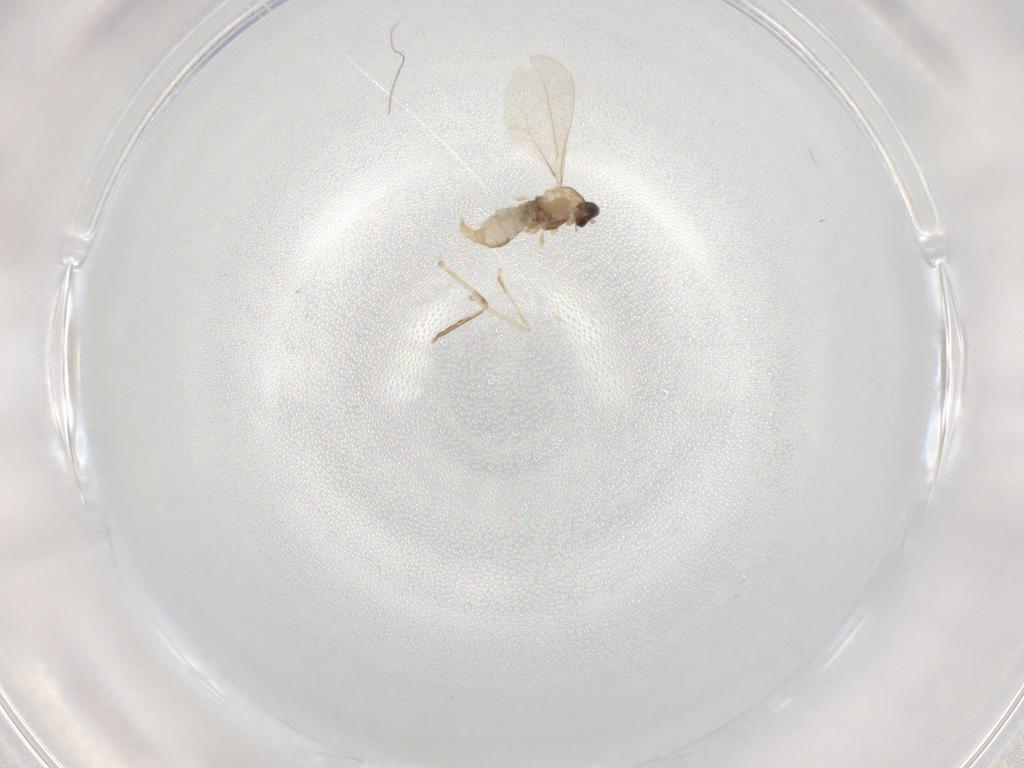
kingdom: Animalia
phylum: Arthropoda
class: Insecta
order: Diptera
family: Cecidomyiidae
